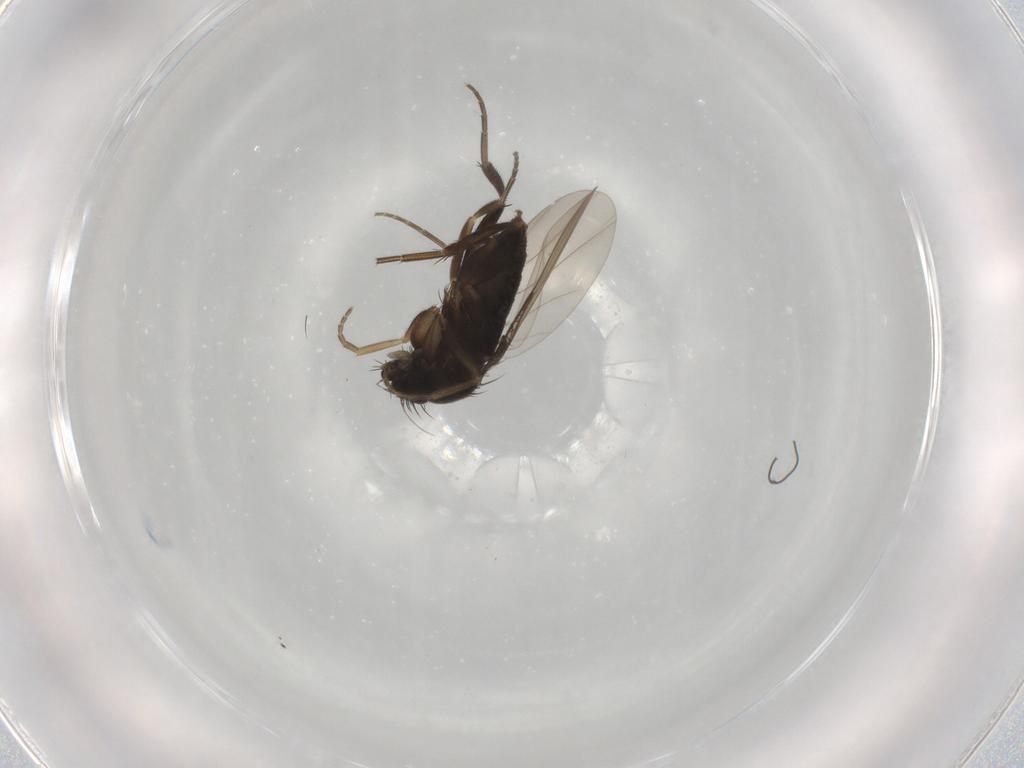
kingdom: Animalia
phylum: Arthropoda
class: Insecta
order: Diptera
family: Phoridae
